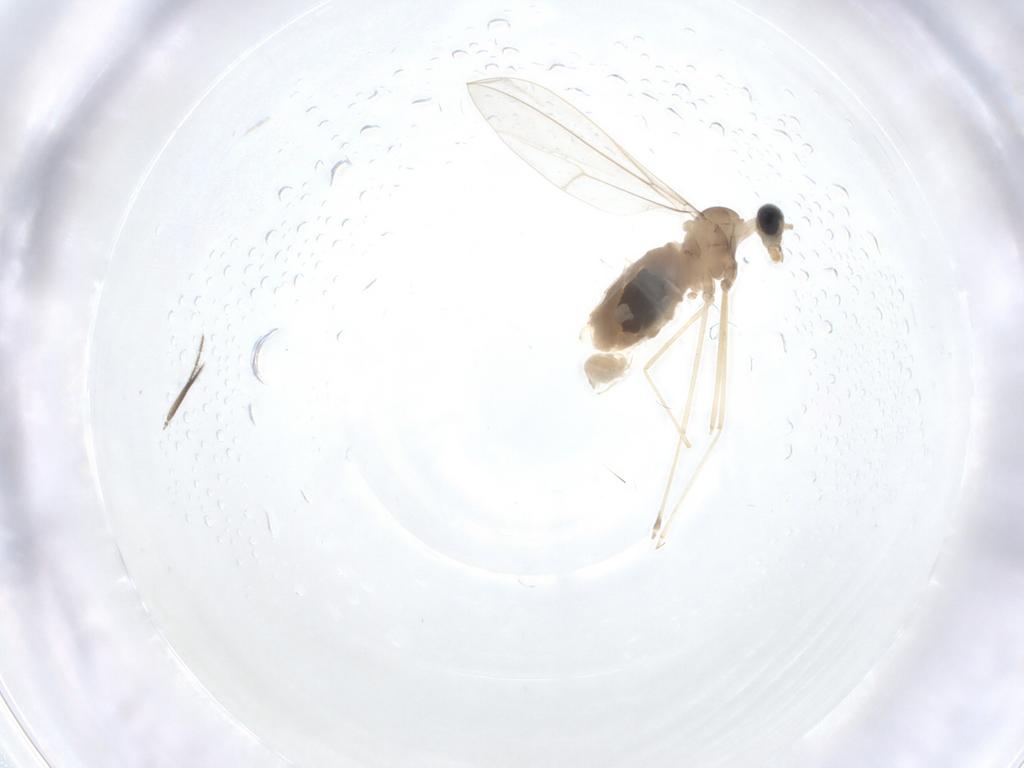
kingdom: Animalia
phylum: Arthropoda
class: Insecta
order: Diptera
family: Cecidomyiidae
